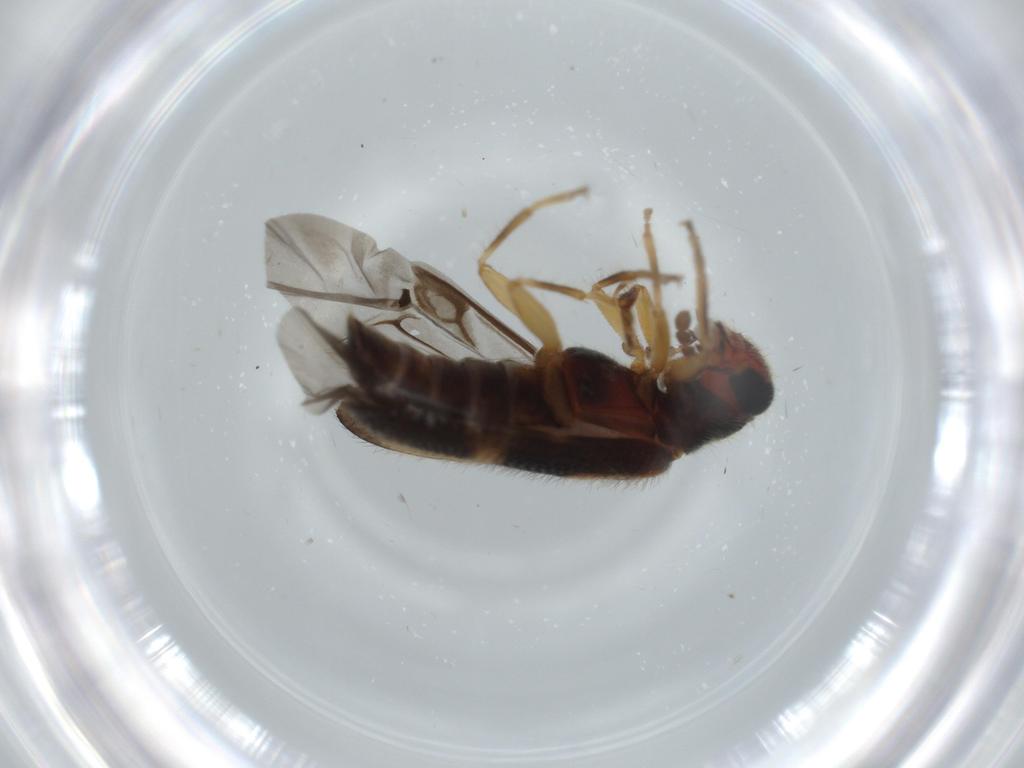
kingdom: Animalia
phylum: Arthropoda
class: Insecta
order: Coleoptera
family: Cleridae
